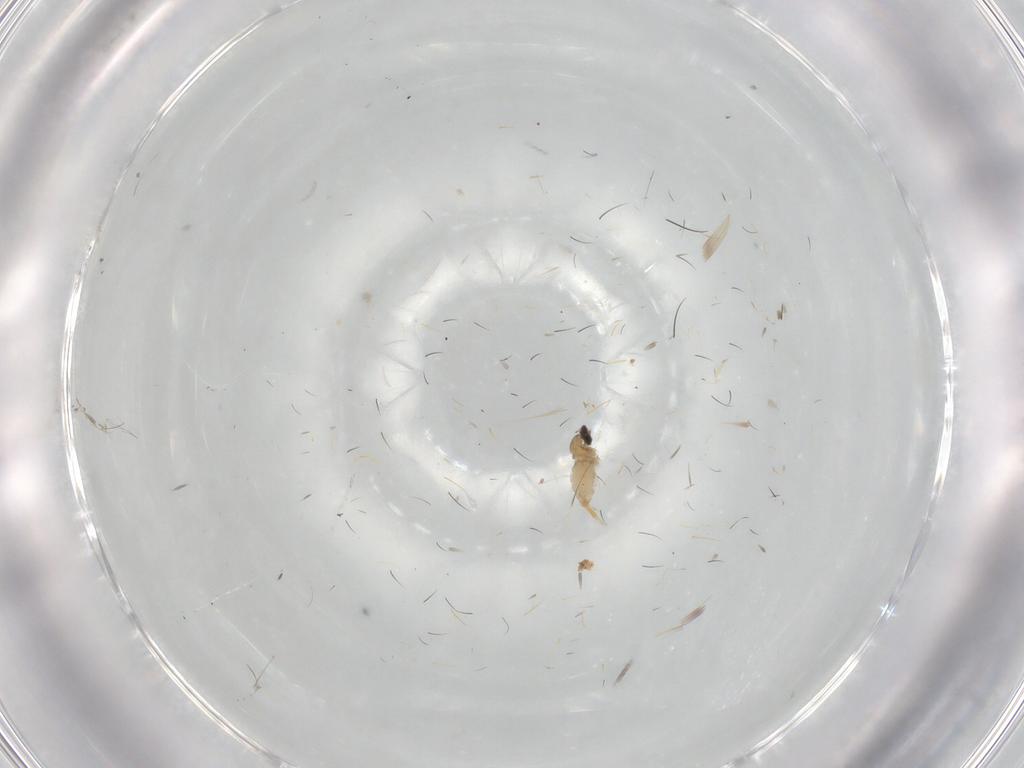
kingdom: Animalia
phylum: Arthropoda
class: Insecta
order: Diptera
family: Cecidomyiidae
